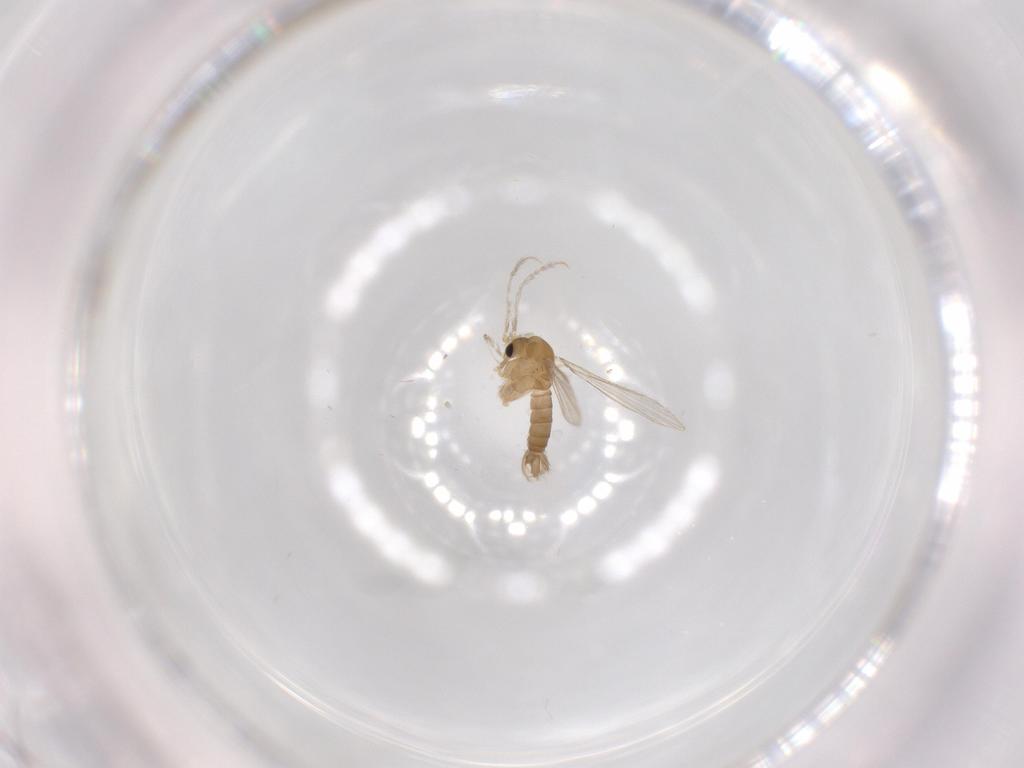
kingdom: Animalia
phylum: Arthropoda
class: Insecta
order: Diptera
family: Psychodidae
